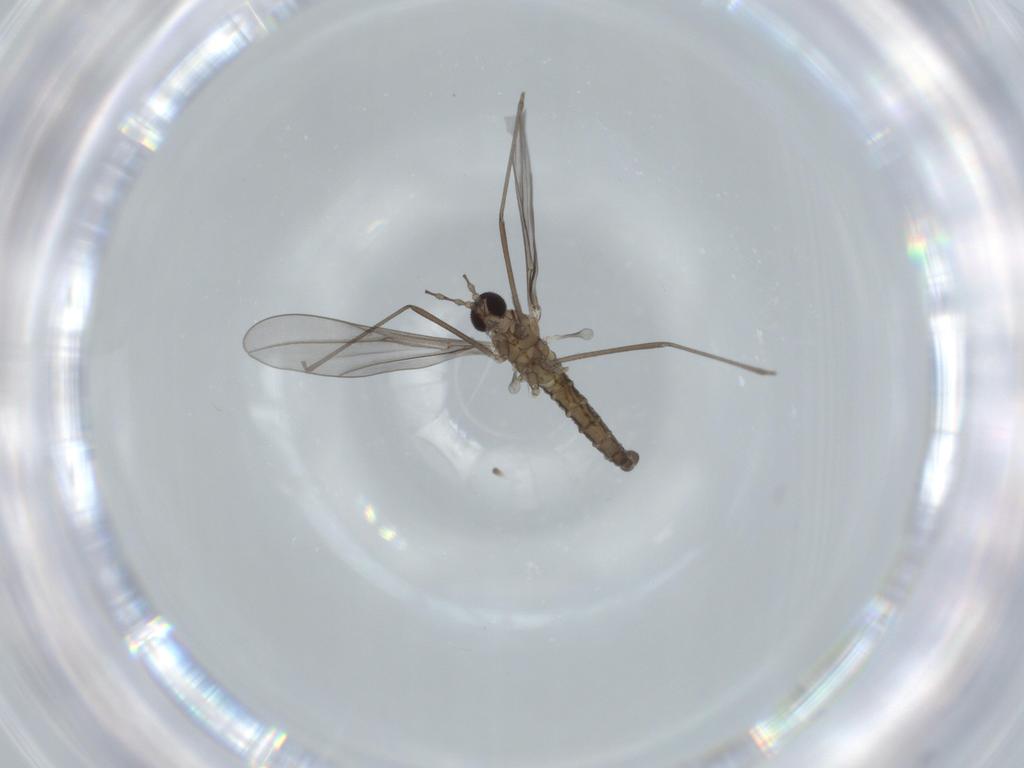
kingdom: Animalia
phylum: Arthropoda
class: Insecta
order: Diptera
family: Cecidomyiidae
